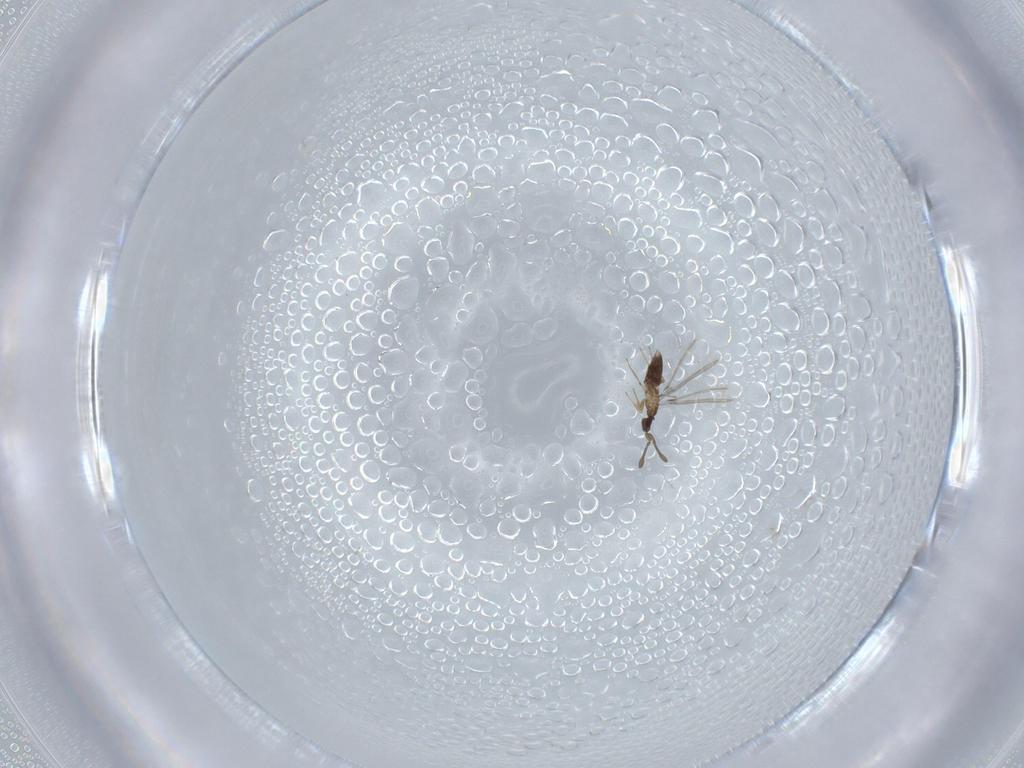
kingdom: Animalia
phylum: Arthropoda
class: Insecta
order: Hymenoptera
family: Mymaridae
